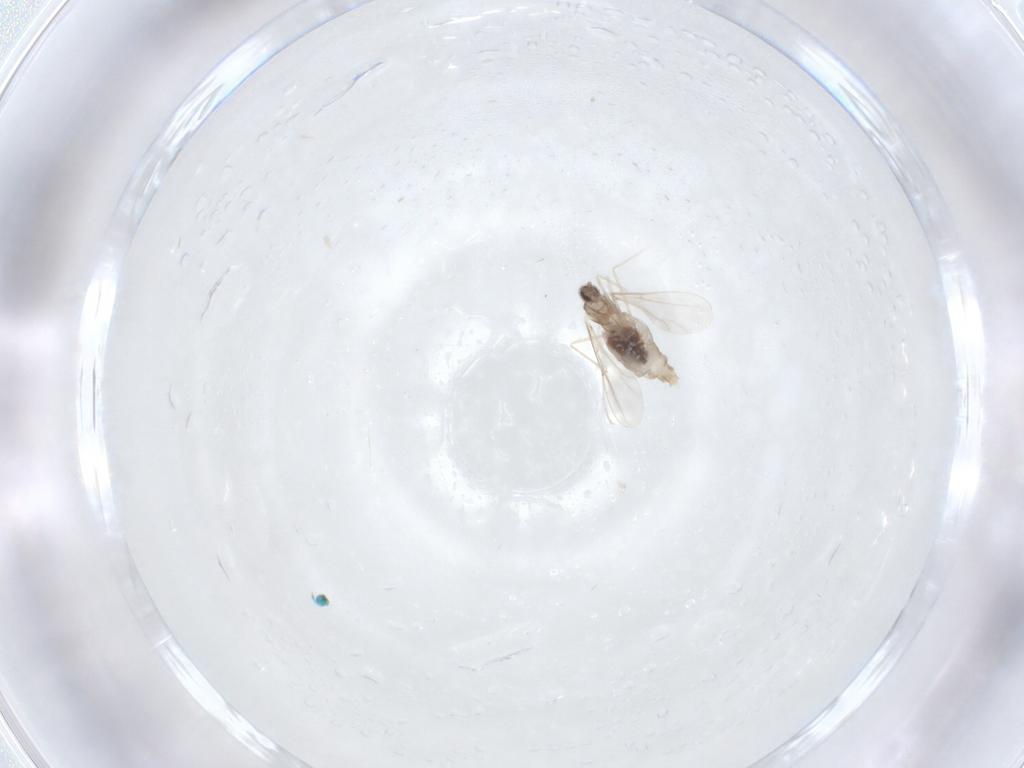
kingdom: Animalia
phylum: Arthropoda
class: Insecta
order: Diptera
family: Cecidomyiidae
